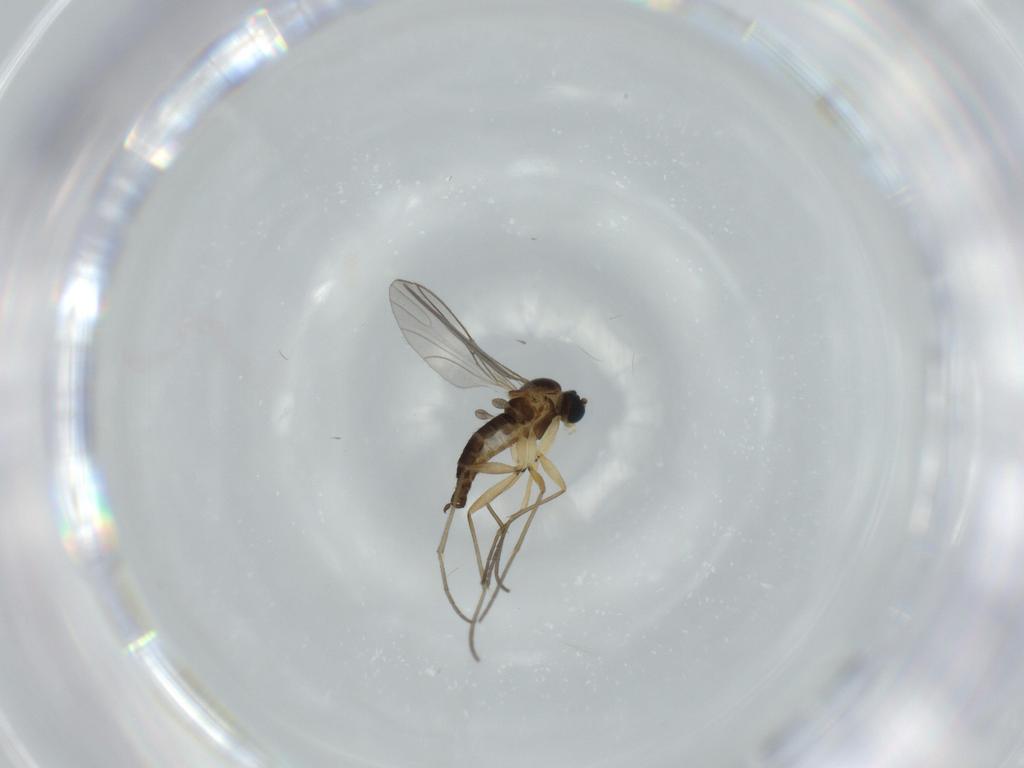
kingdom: Animalia
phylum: Arthropoda
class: Insecta
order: Diptera
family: Sciaridae
